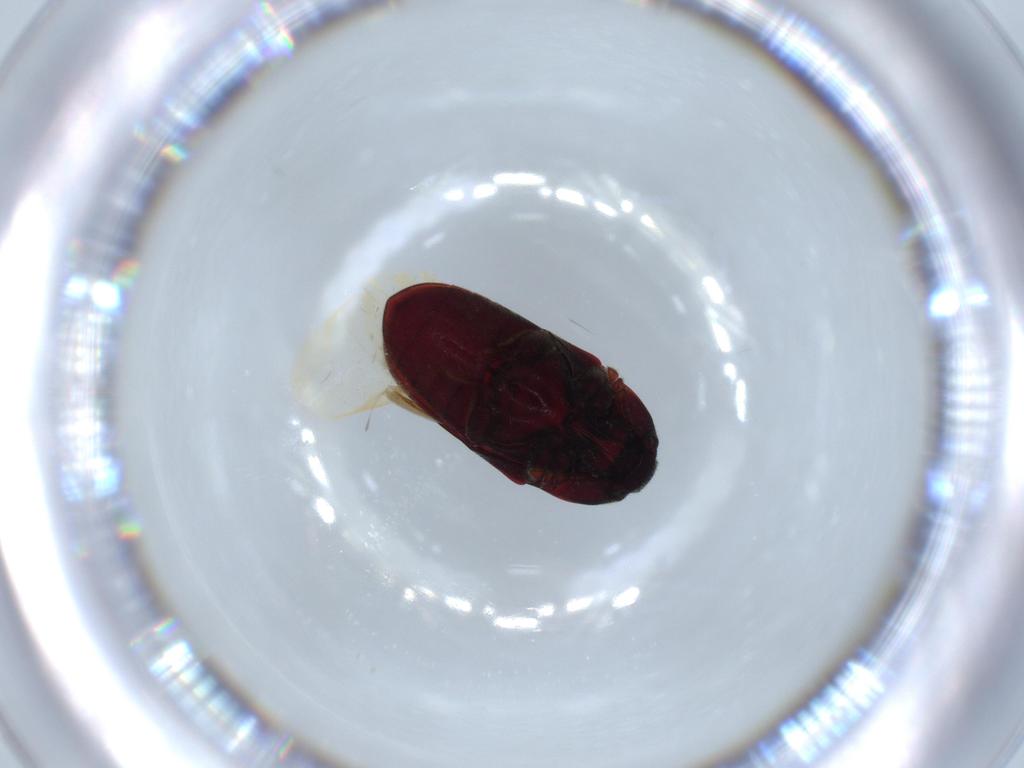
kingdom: Animalia
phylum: Arthropoda
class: Insecta
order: Coleoptera
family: Throscidae
